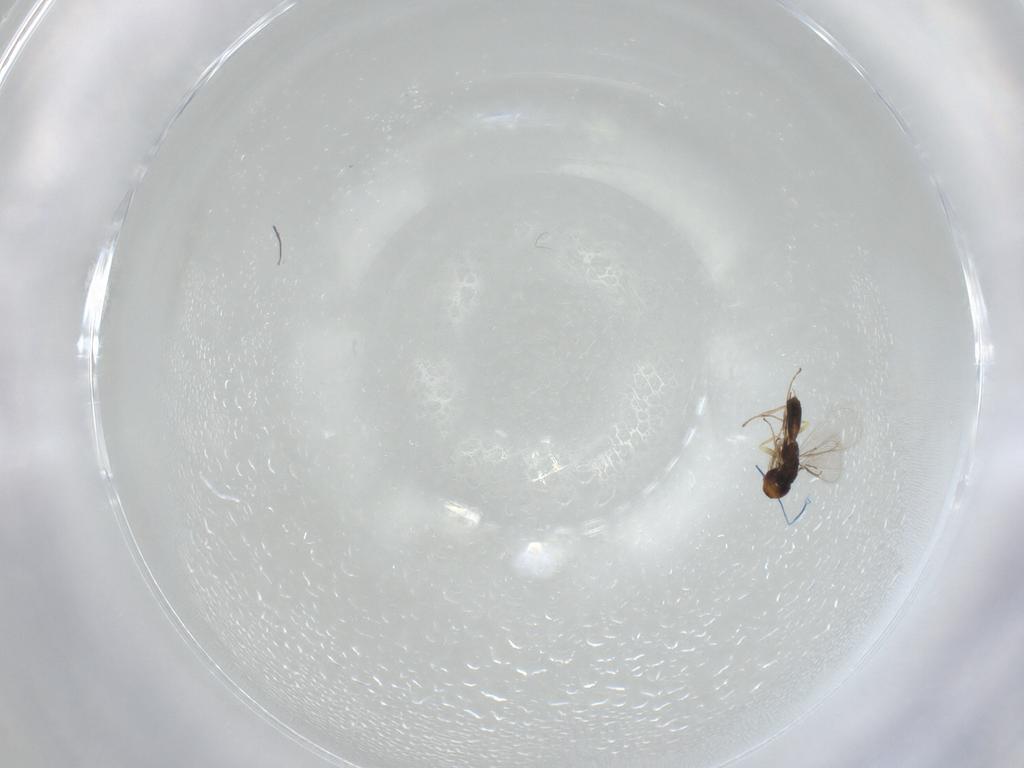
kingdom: Animalia
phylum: Arthropoda
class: Insecta
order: Hymenoptera
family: Eulophidae
